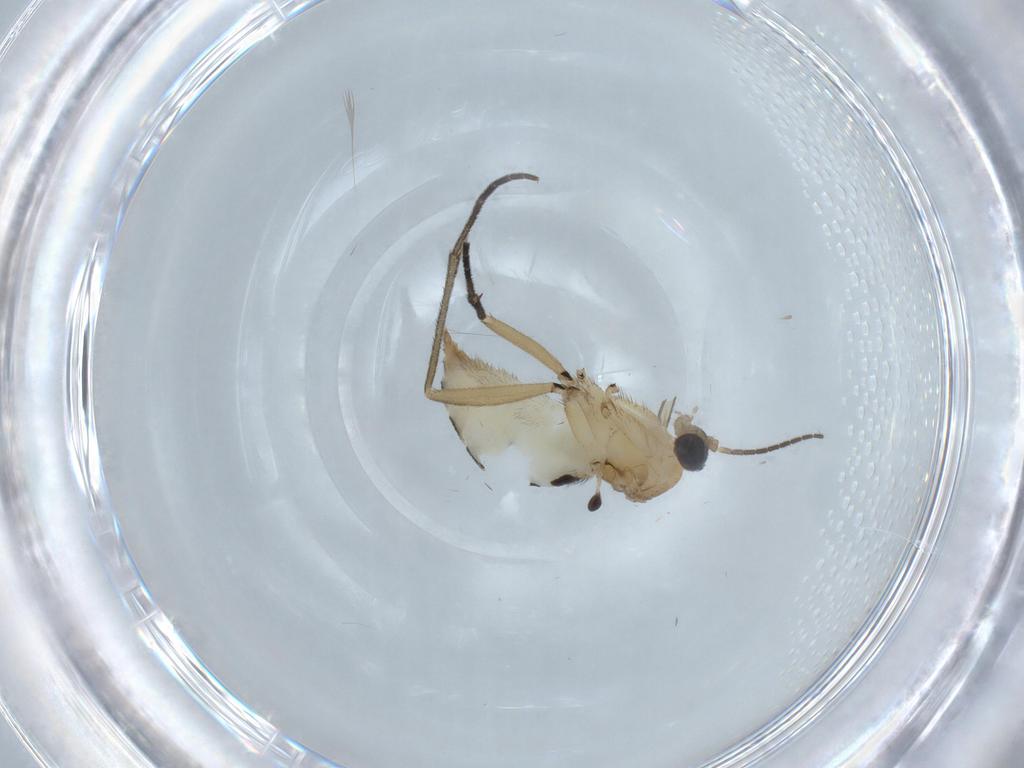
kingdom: Animalia
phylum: Arthropoda
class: Insecta
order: Diptera
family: Sciaridae
